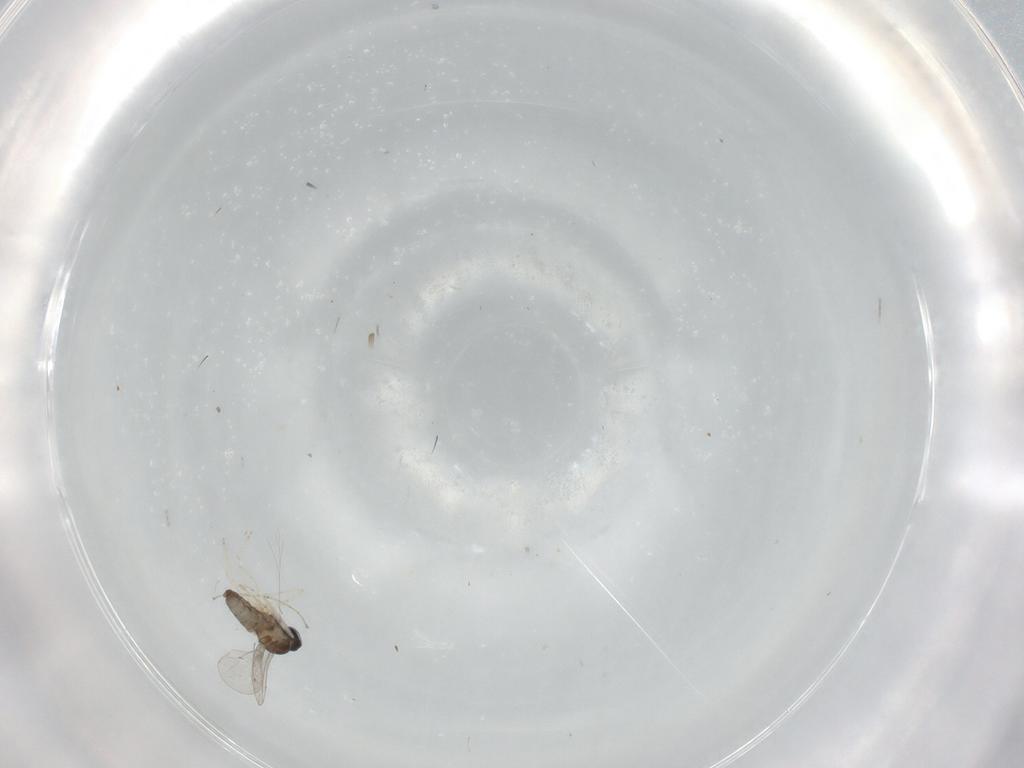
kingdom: Animalia
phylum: Arthropoda
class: Insecta
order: Diptera
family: Cecidomyiidae
